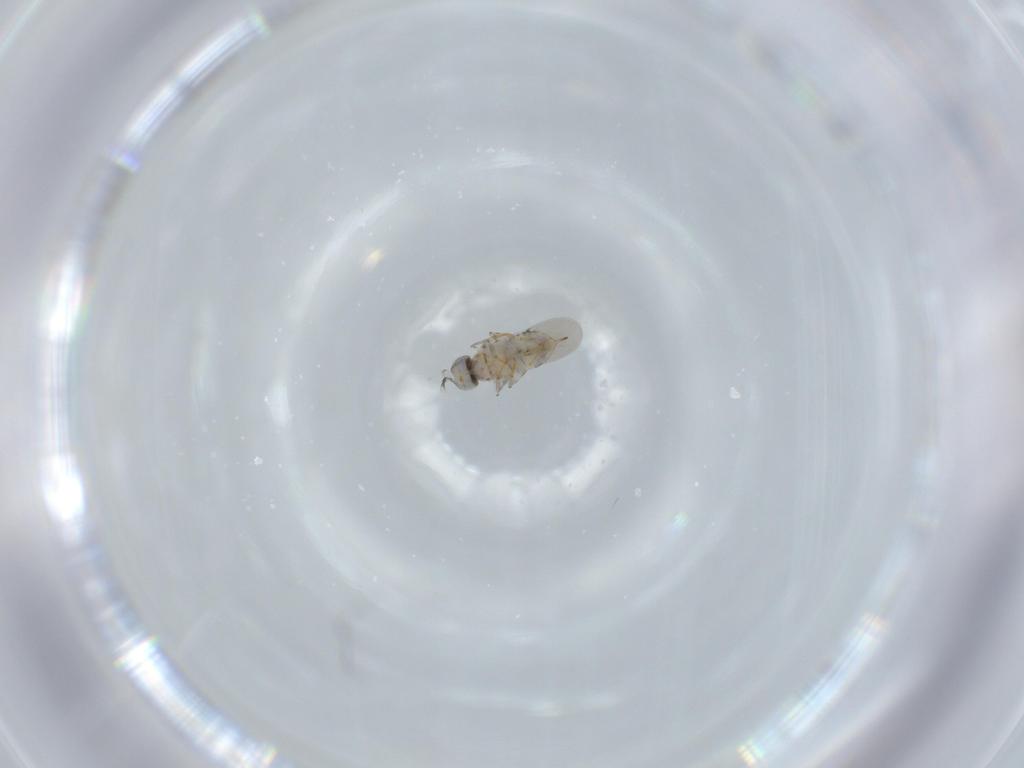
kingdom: Animalia
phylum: Arthropoda
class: Insecta
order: Hymenoptera
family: Encyrtidae
